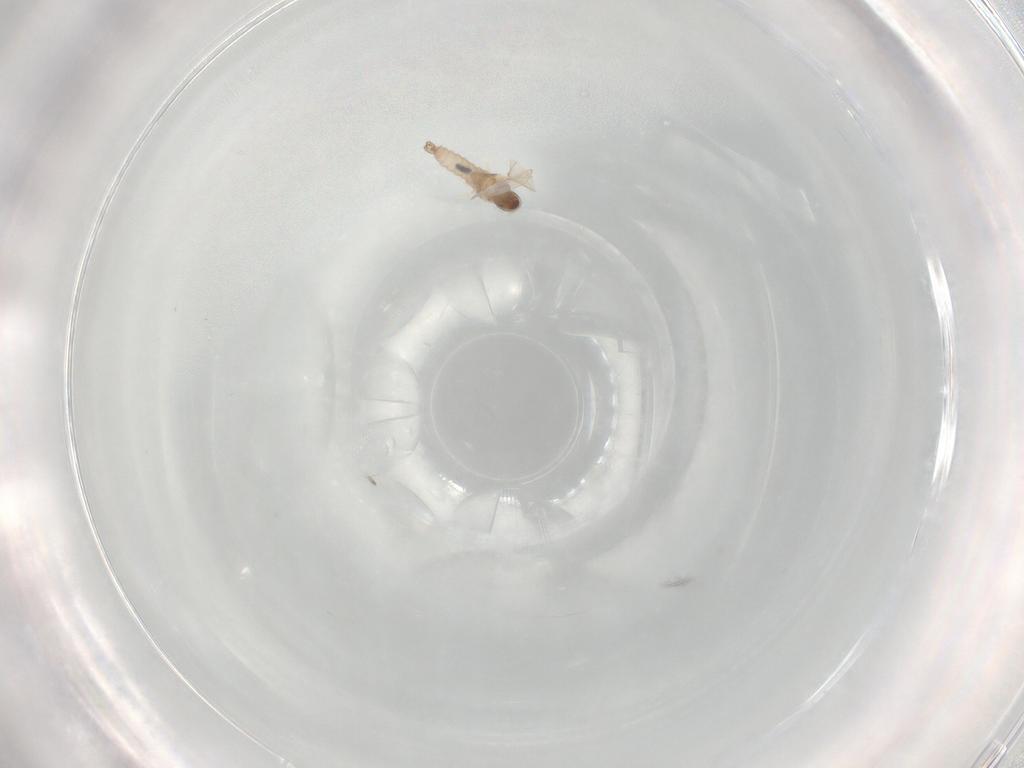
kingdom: Animalia
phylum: Arthropoda
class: Insecta
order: Diptera
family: Cecidomyiidae
